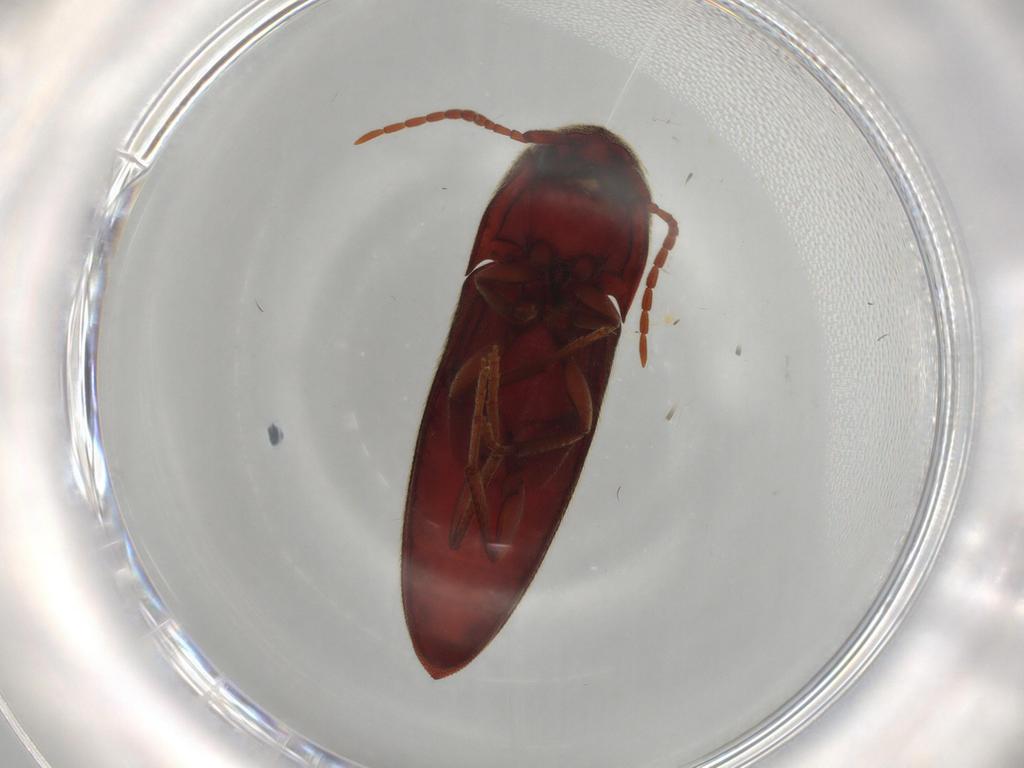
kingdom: Animalia
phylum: Arthropoda
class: Insecta
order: Coleoptera
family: Eucnemidae
